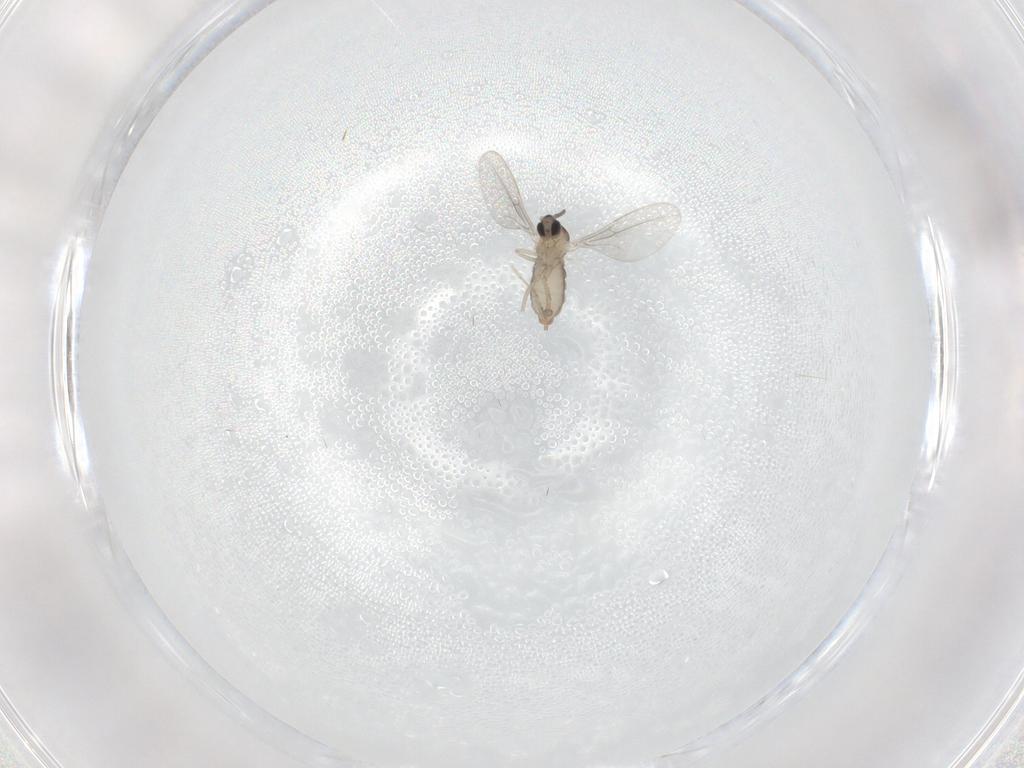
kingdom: Animalia
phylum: Arthropoda
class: Insecta
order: Diptera
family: Cecidomyiidae
